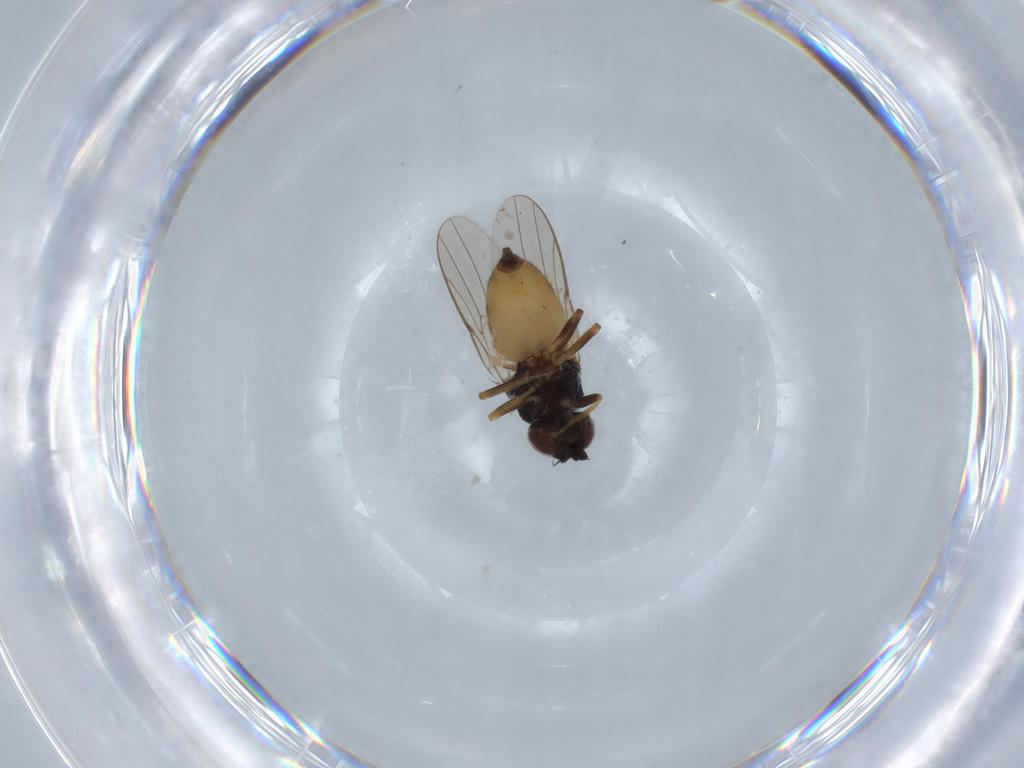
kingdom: Animalia
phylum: Arthropoda
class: Insecta
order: Diptera
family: Chloropidae
